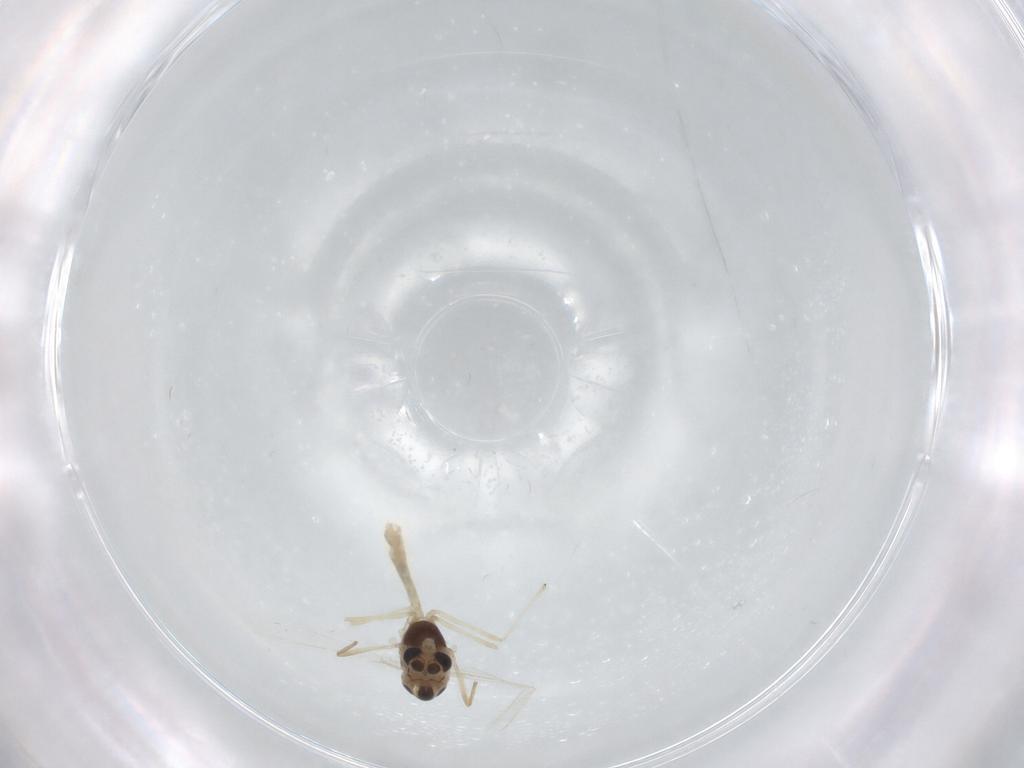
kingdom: Animalia
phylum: Arthropoda
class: Insecta
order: Diptera
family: Chironomidae
